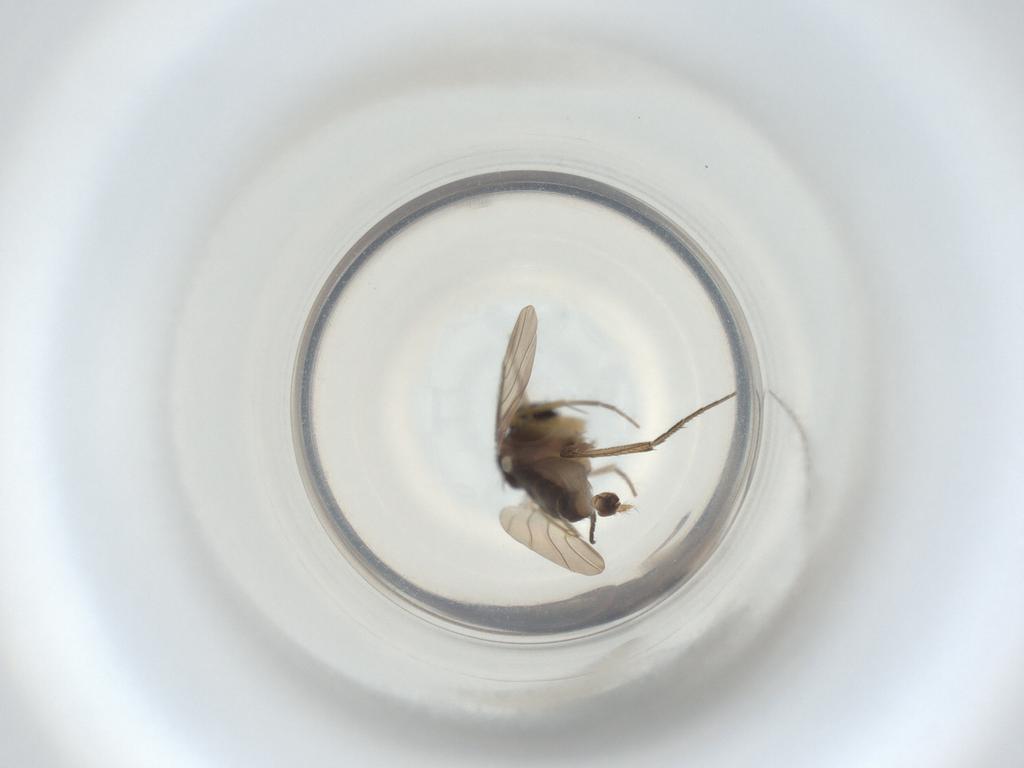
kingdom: Animalia
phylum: Arthropoda
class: Insecta
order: Diptera
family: Phoridae
